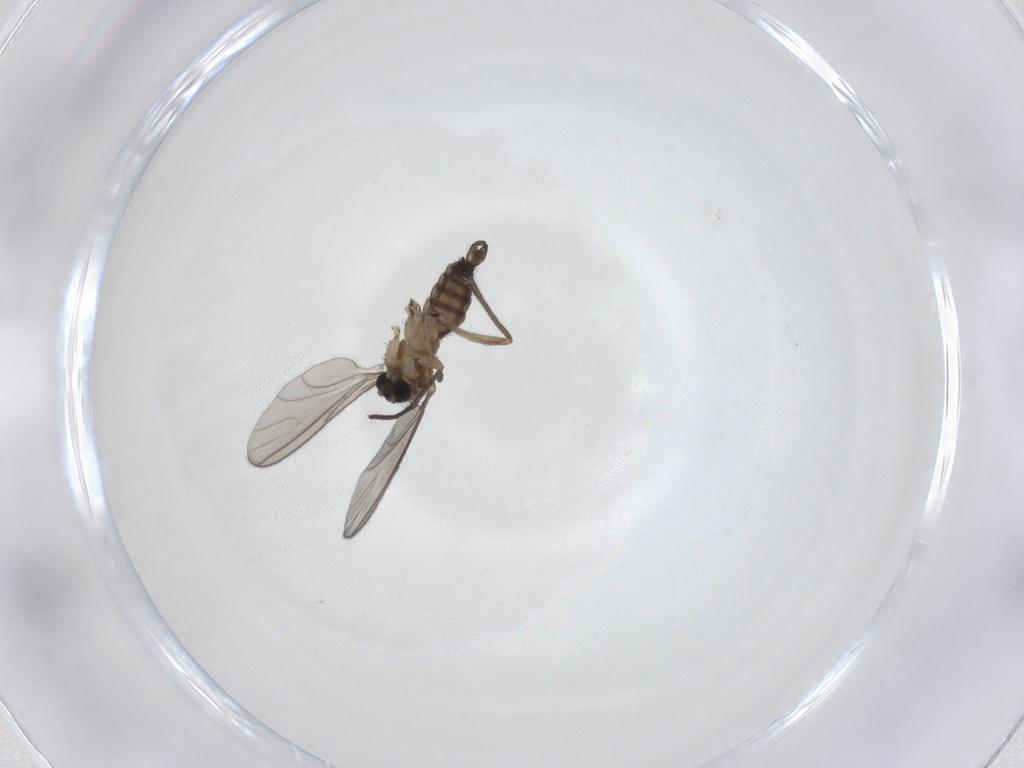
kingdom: Animalia
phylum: Arthropoda
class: Insecta
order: Diptera
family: Sciaridae
